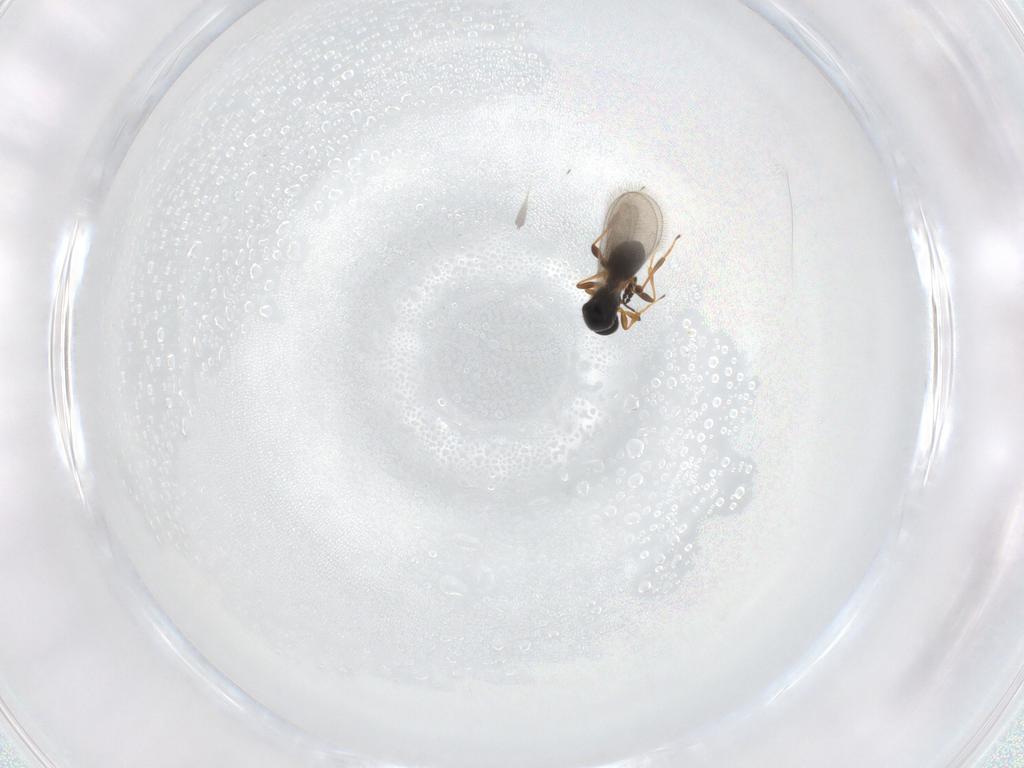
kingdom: Animalia
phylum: Arthropoda
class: Insecta
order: Hymenoptera
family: Platygastridae
